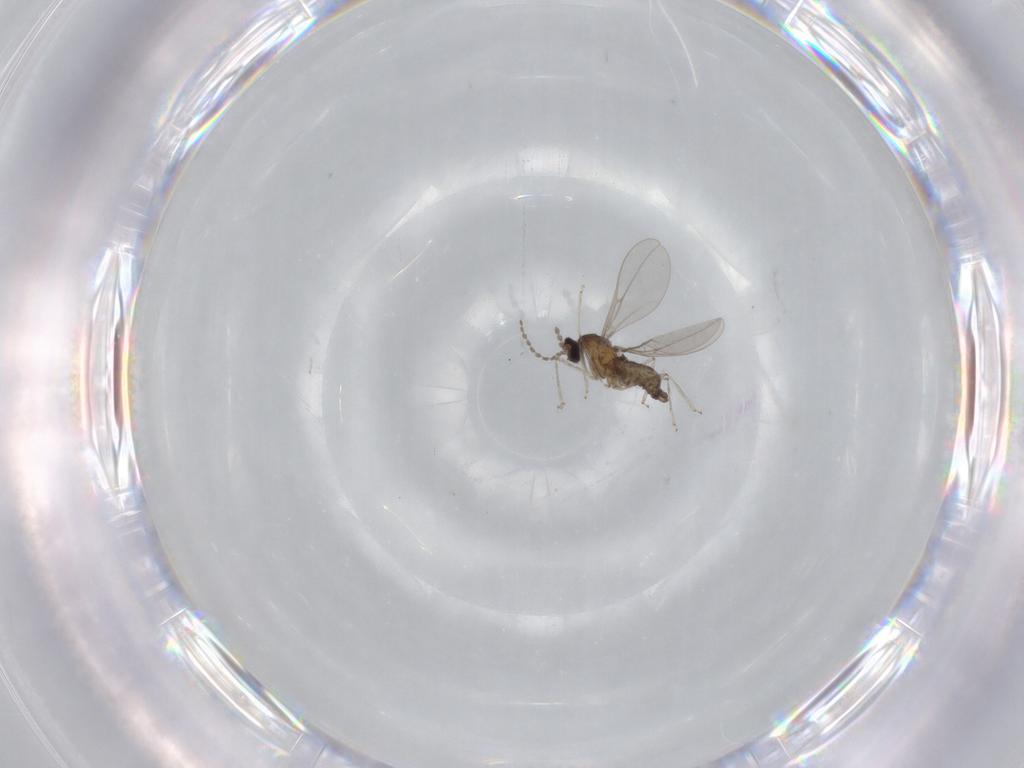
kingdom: Animalia
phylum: Arthropoda
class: Insecta
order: Diptera
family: Cecidomyiidae
